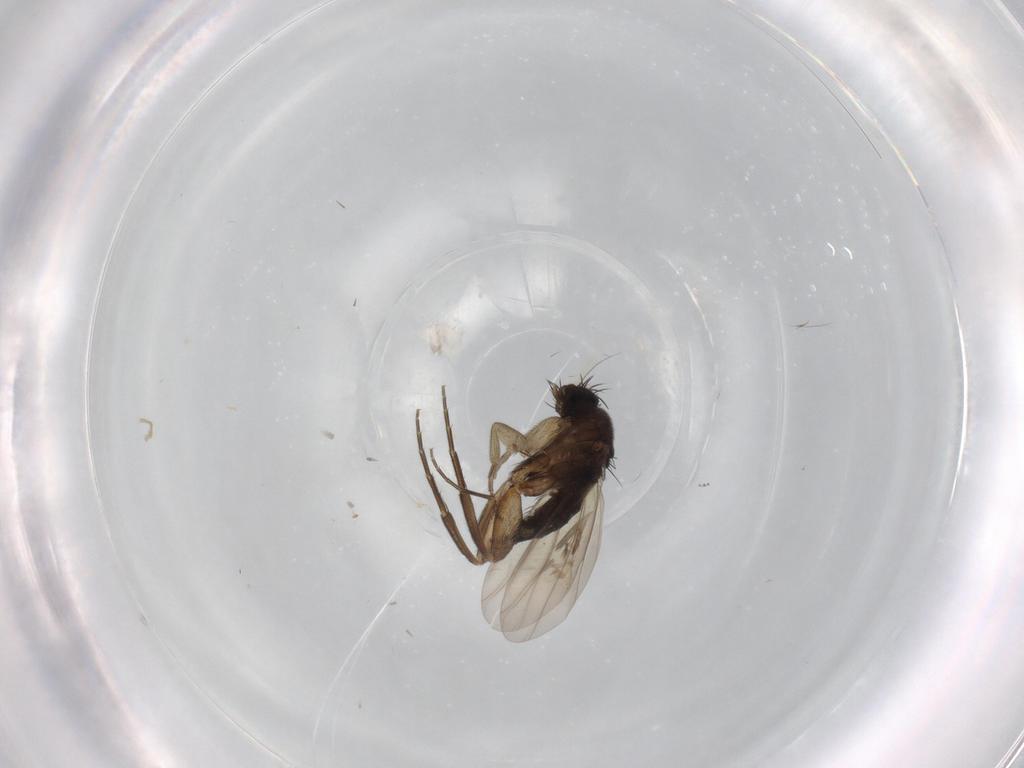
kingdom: Animalia
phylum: Arthropoda
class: Insecta
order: Diptera
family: Phoridae
